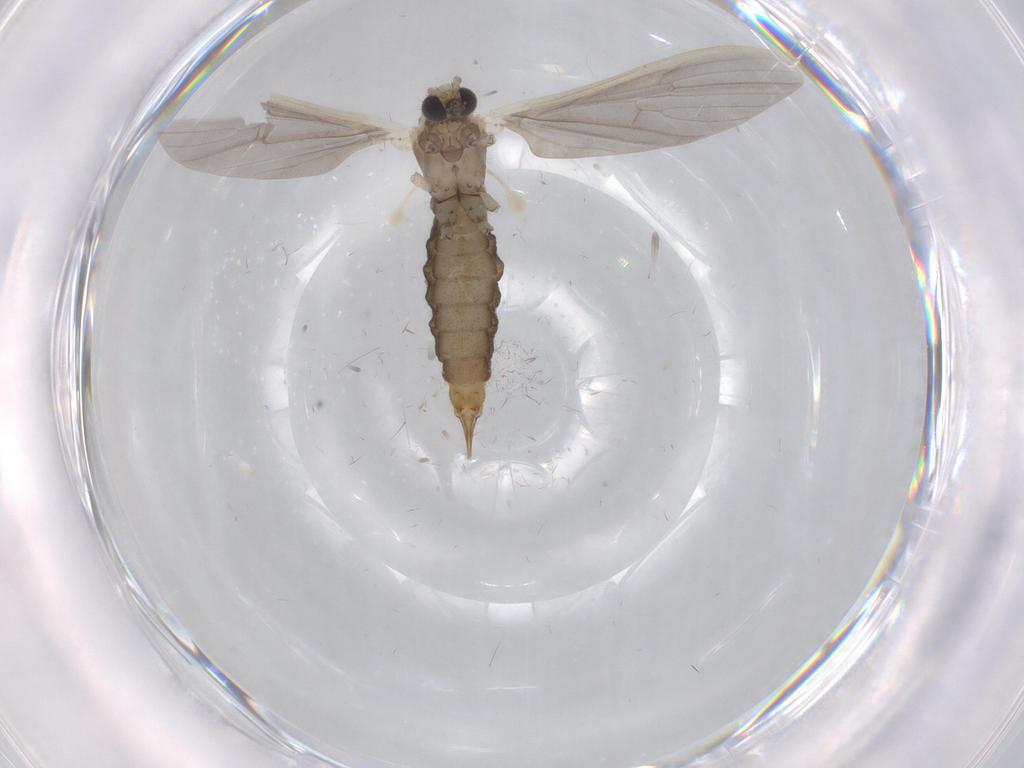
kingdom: Animalia
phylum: Arthropoda
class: Insecta
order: Diptera
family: Limoniidae
